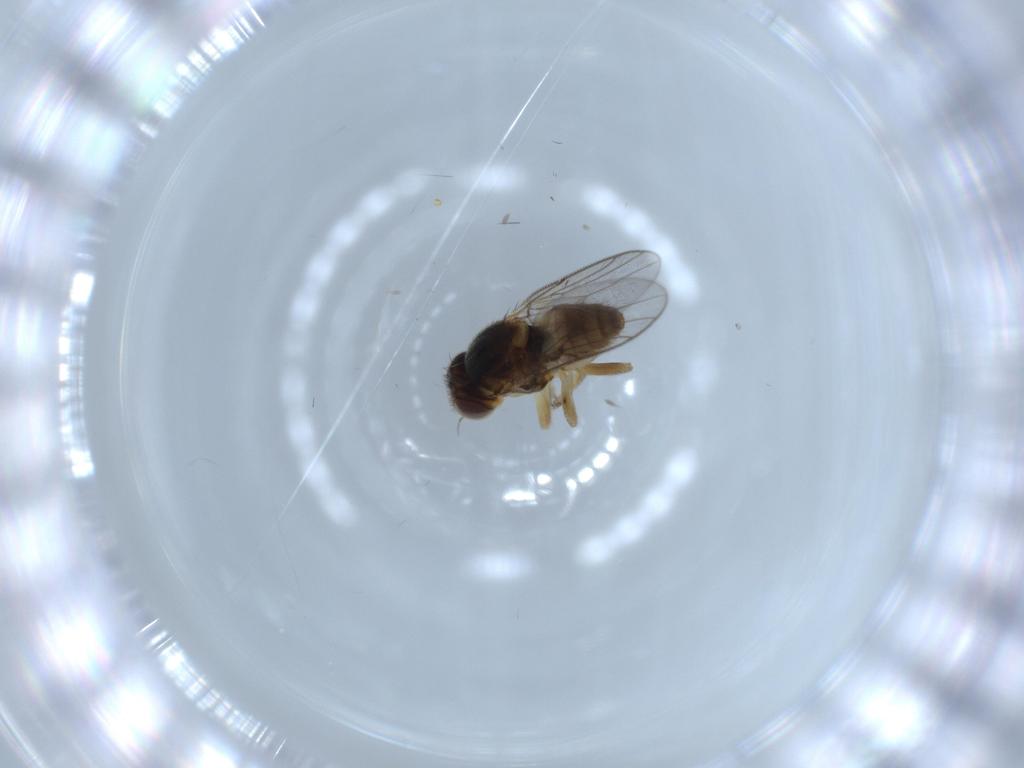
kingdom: Animalia
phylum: Arthropoda
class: Insecta
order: Diptera
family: Chloropidae
